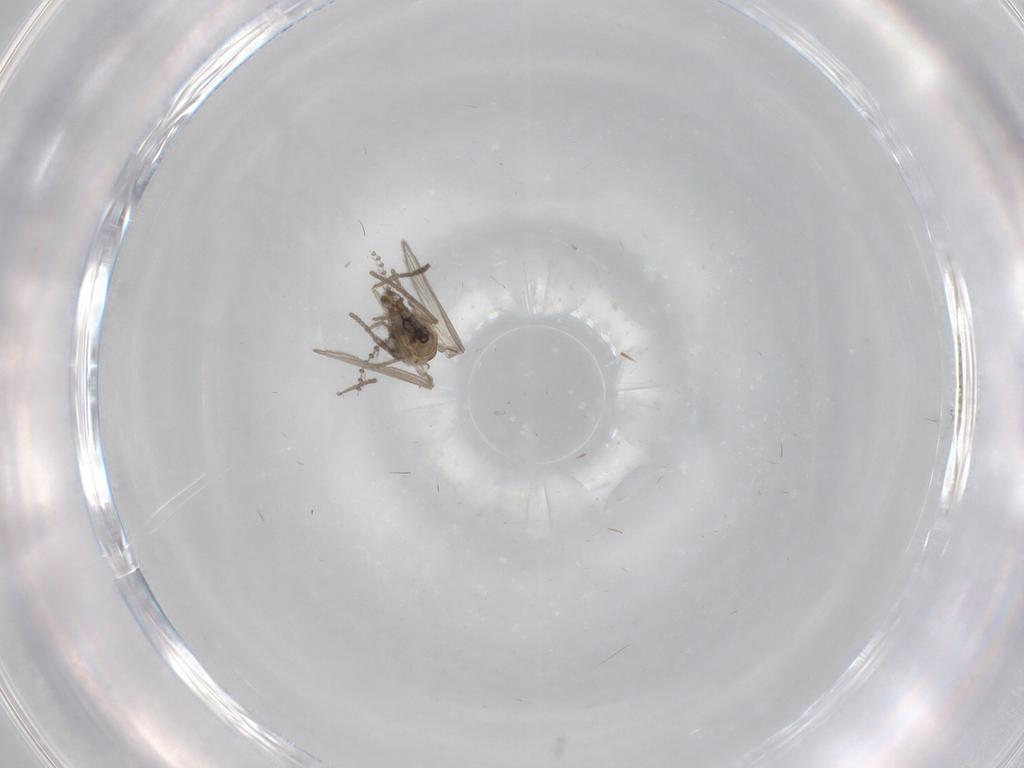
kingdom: Animalia
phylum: Arthropoda
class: Insecta
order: Diptera
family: Psychodidae
